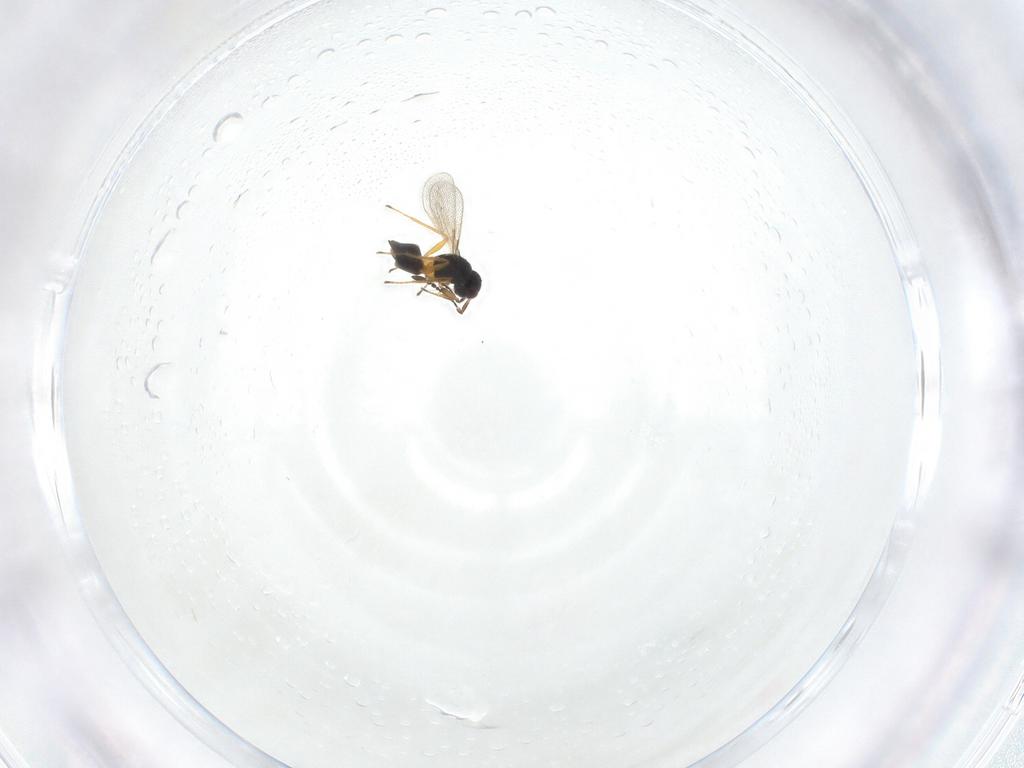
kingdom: Animalia
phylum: Arthropoda
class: Insecta
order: Hymenoptera
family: Mymaridae
